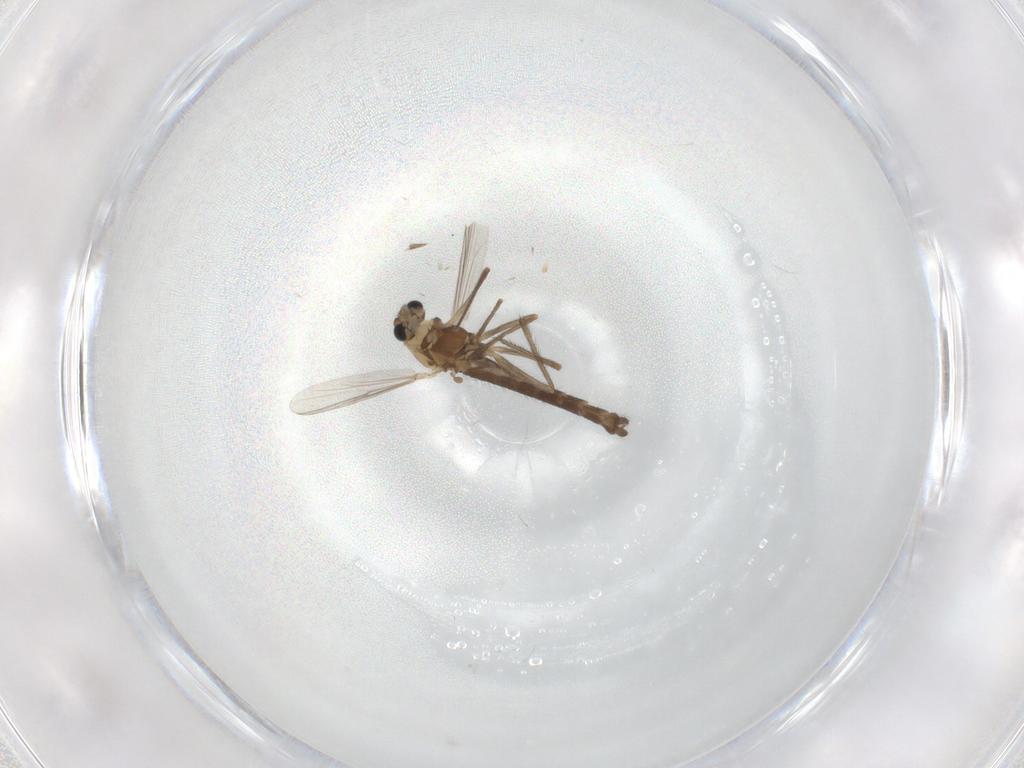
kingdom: Animalia
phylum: Arthropoda
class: Insecta
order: Diptera
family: Chironomidae
